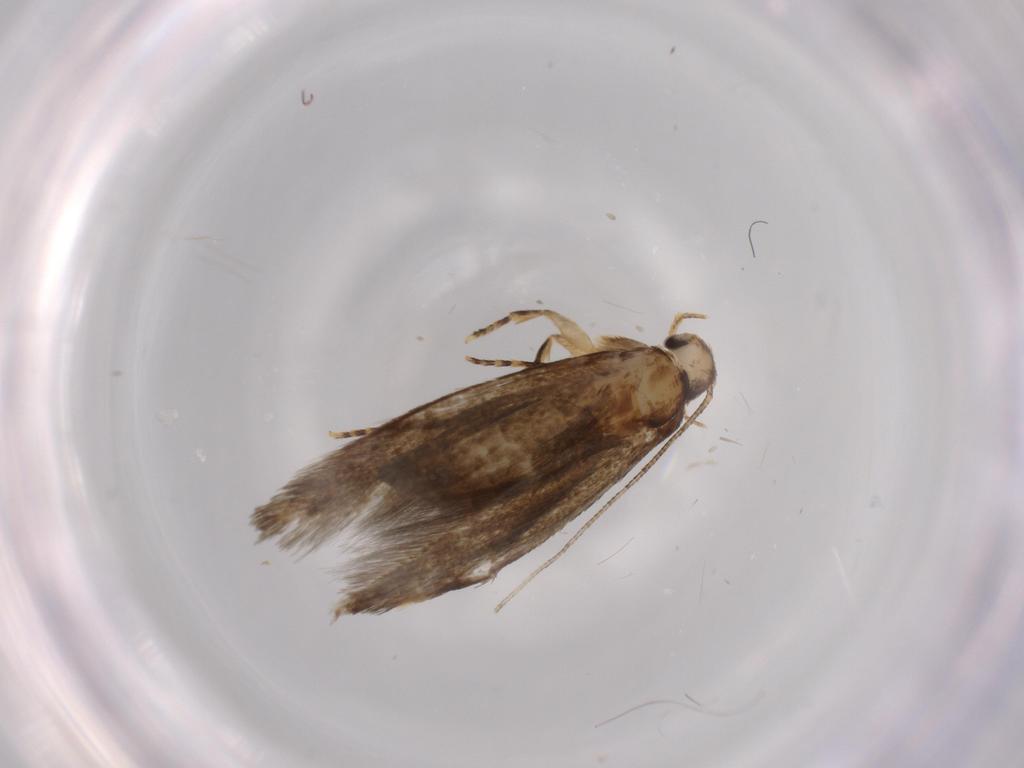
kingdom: Animalia
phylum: Arthropoda
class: Insecta
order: Lepidoptera
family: Tineidae
